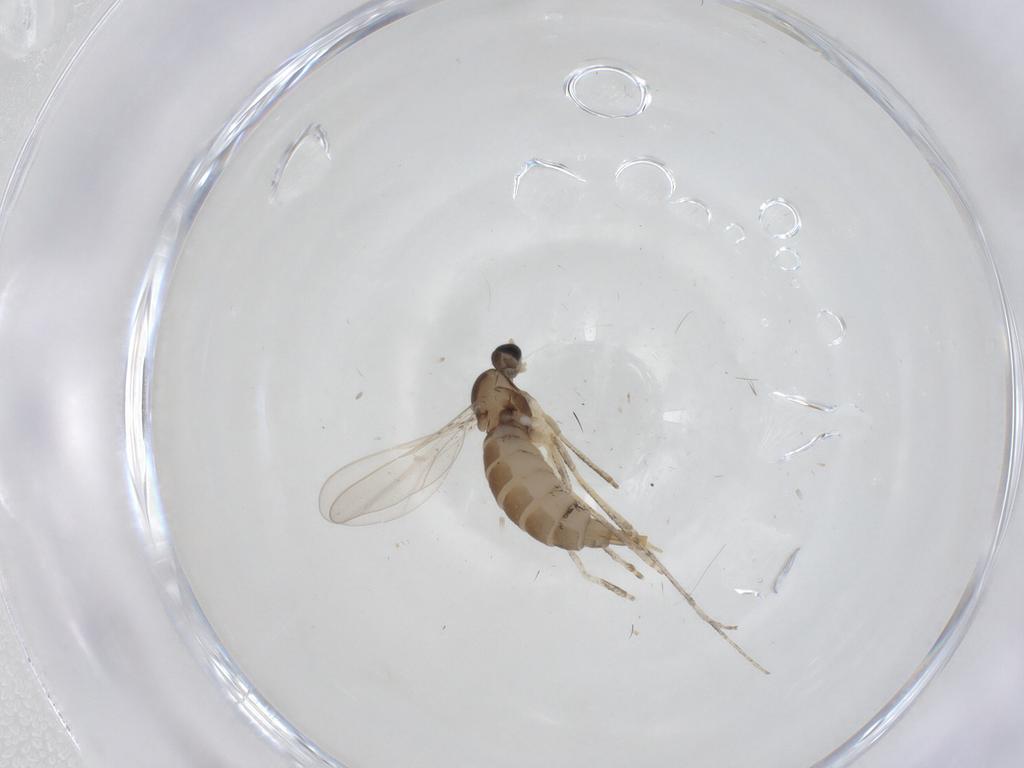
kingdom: Animalia
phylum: Arthropoda
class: Insecta
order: Diptera
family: Cecidomyiidae
